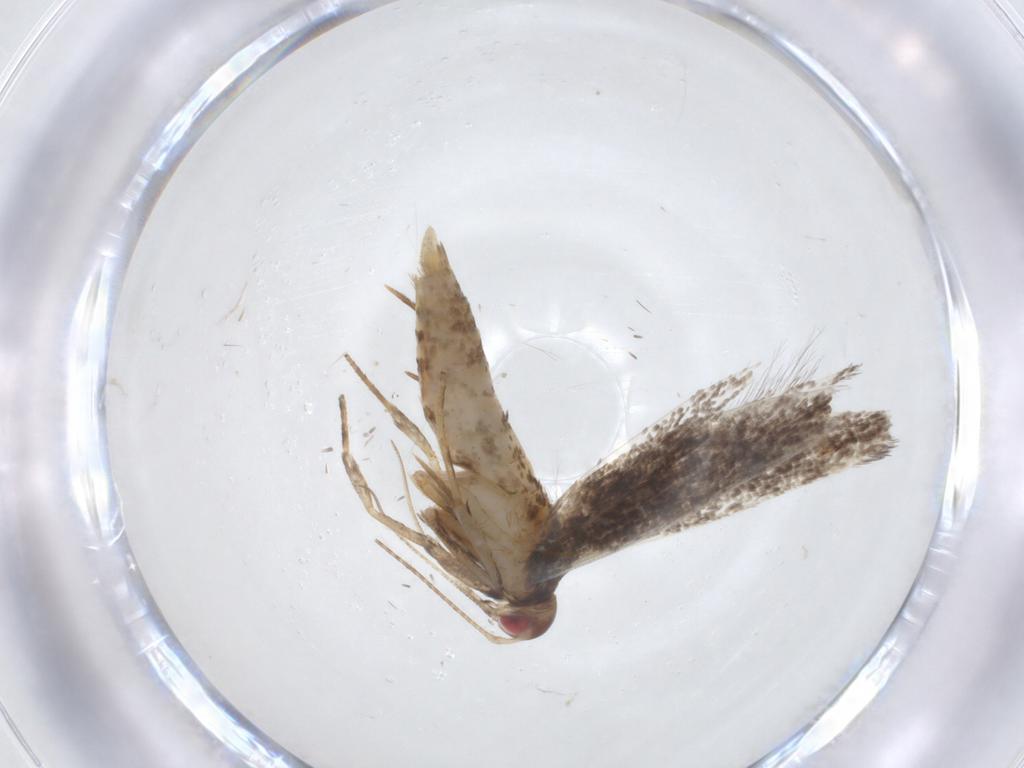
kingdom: Animalia
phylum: Arthropoda
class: Insecta
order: Lepidoptera
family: Gelechiidae
